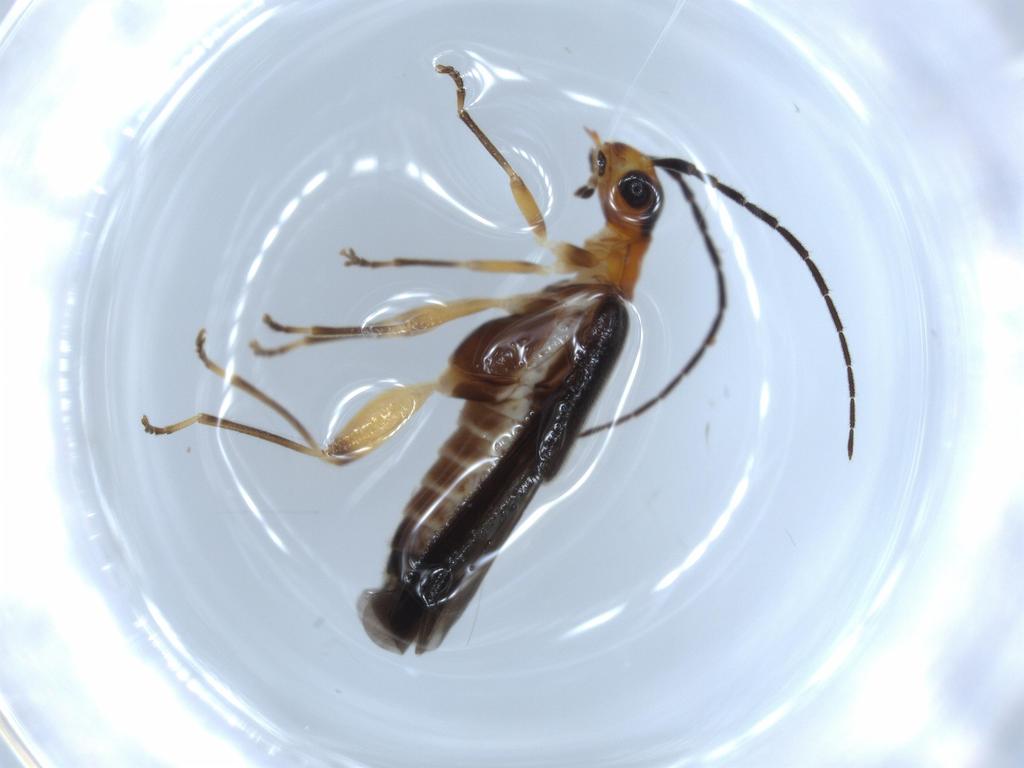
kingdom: Animalia
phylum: Arthropoda
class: Insecta
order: Coleoptera
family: Cantharidae
